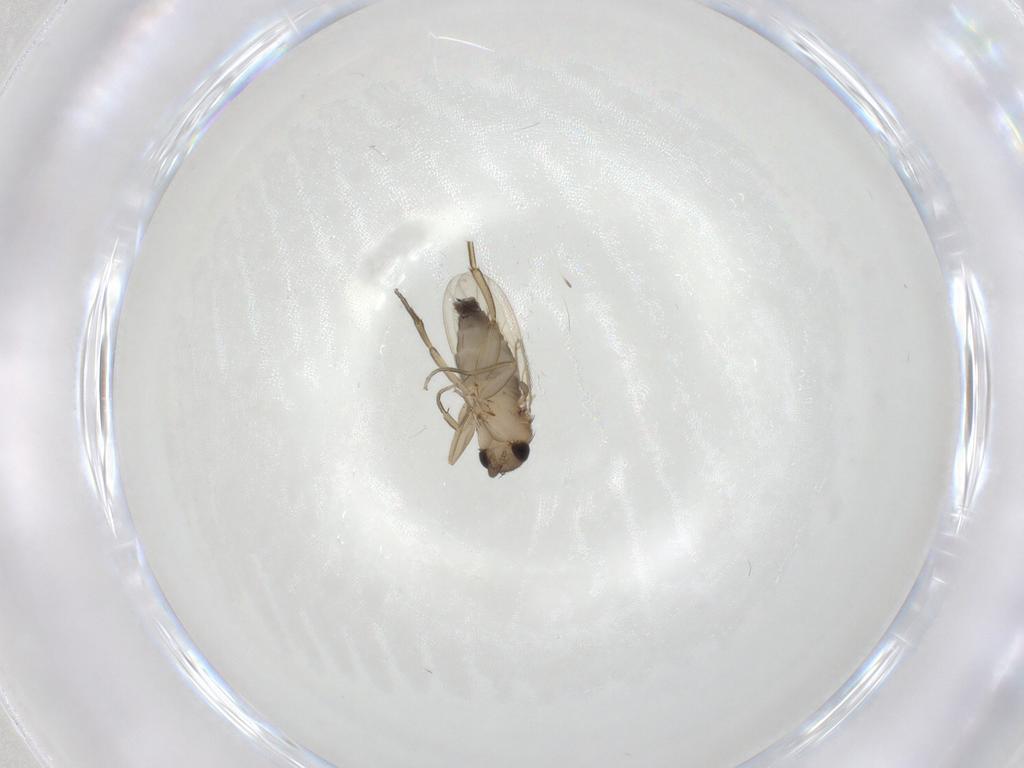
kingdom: Animalia
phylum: Arthropoda
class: Insecta
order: Diptera
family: Phoridae
